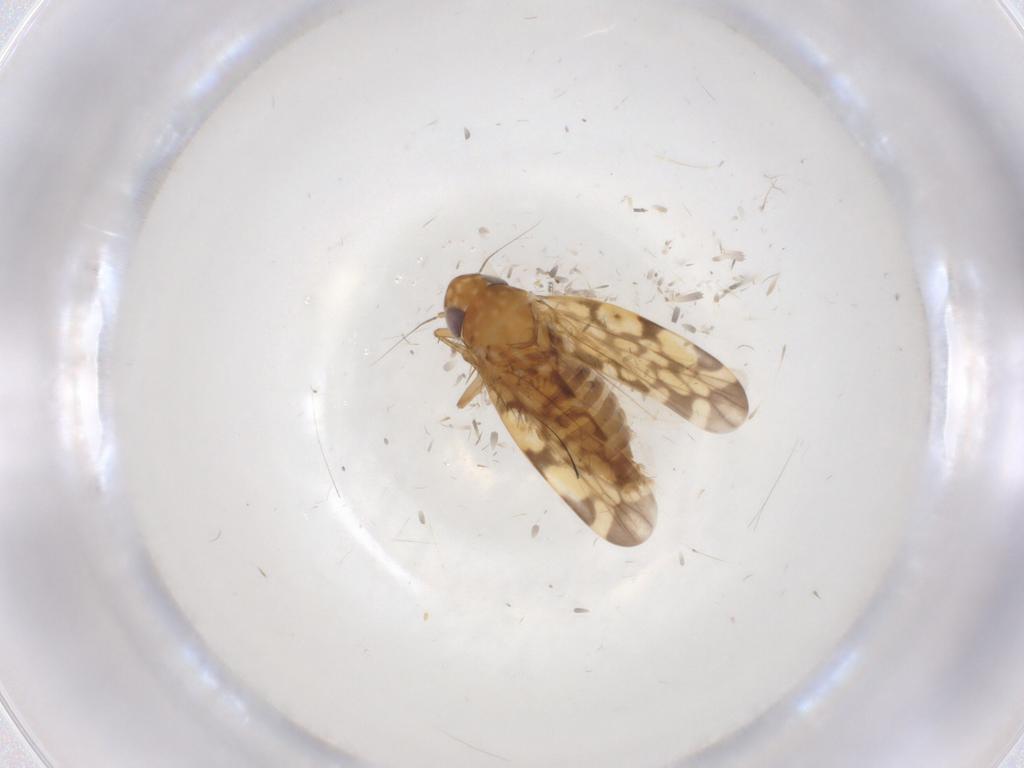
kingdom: Animalia
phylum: Arthropoda
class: Insecta
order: Hemiptera
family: Cicadellidae
